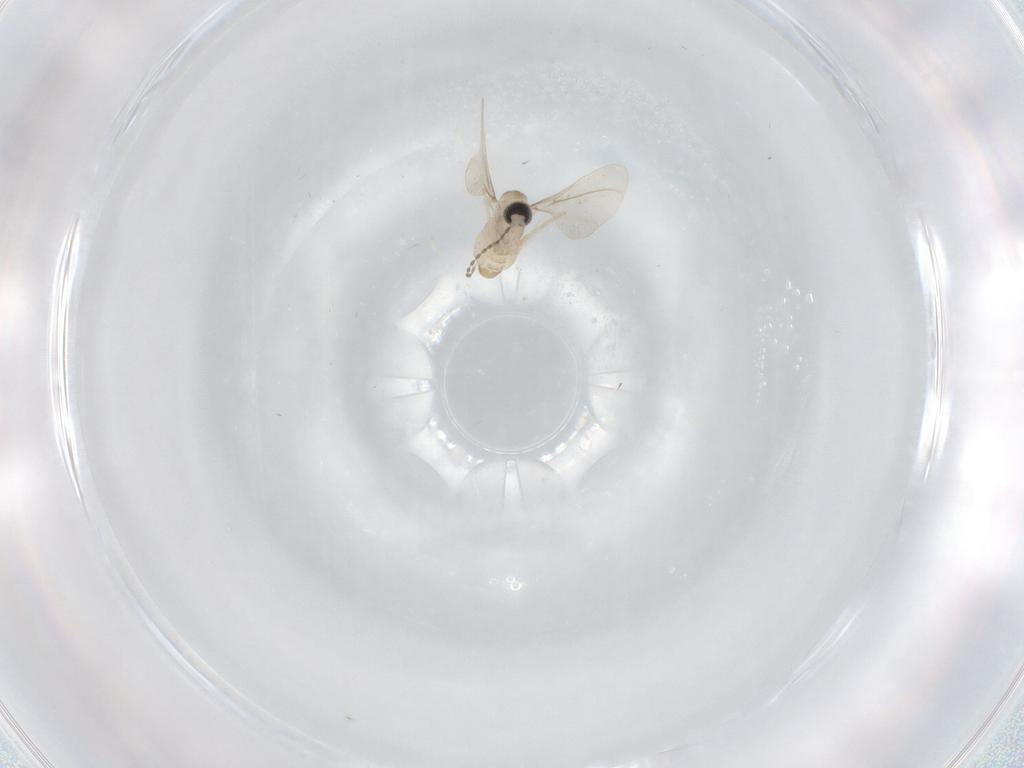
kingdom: Animalia
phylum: Arthropoda
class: Insecta
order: Diptera
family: Cecidomyiidae
